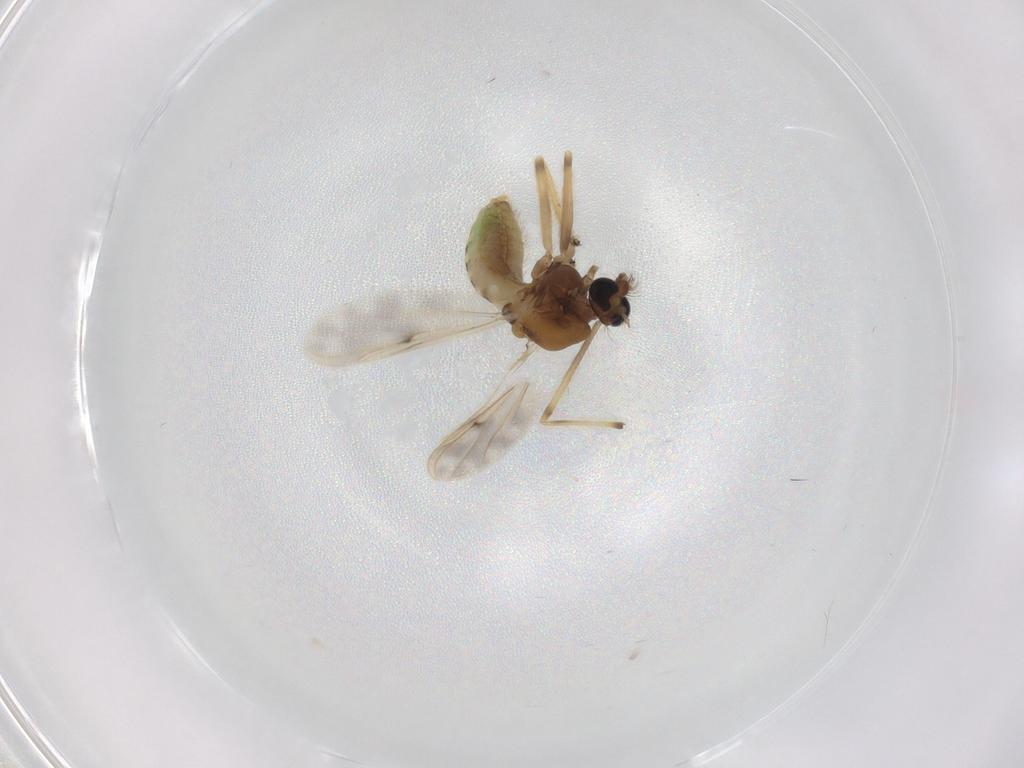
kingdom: Animalia
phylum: Arthropoda
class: Insecta
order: Diptera
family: Chironomidae
